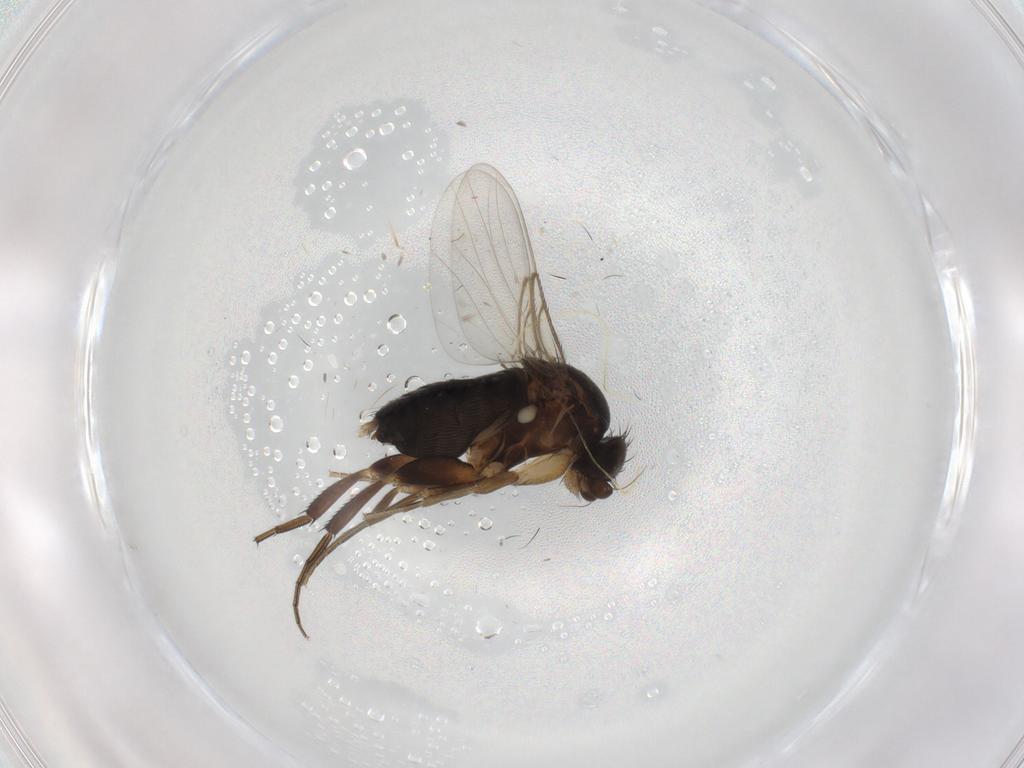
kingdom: Animalia
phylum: Arthropoda
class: Insecta
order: Diptera
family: Phoridae
